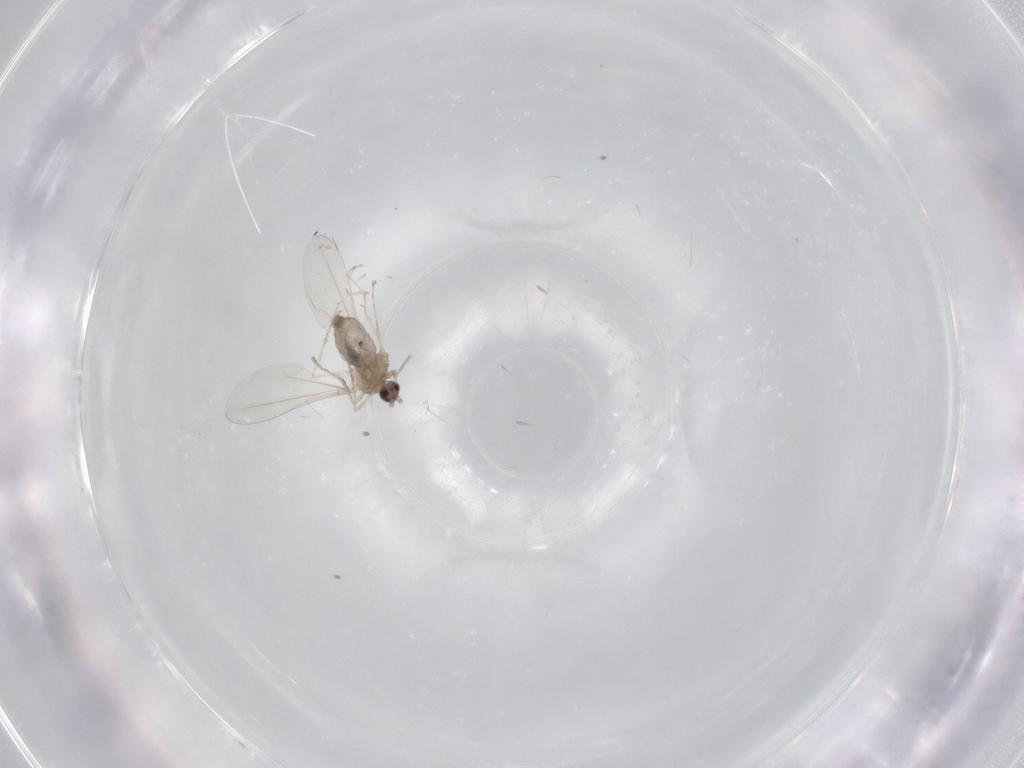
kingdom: Animalia
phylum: Arthropoda
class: Insecta
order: Diptera
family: Cecidomyiidae
